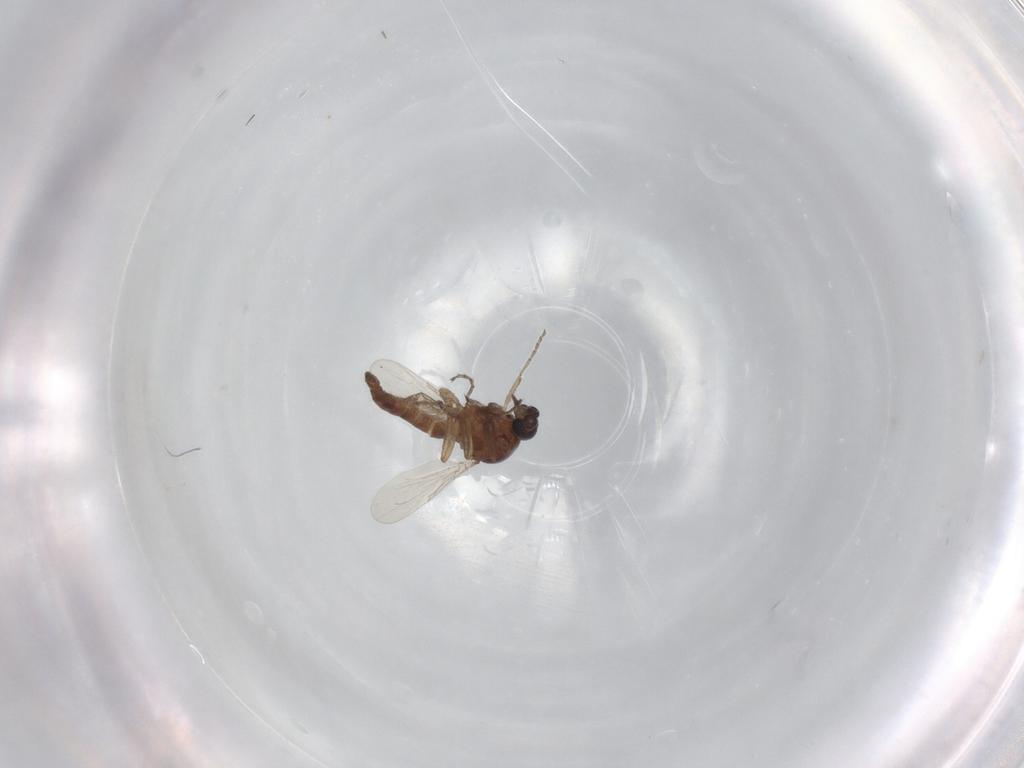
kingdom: Animalia
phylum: Arthropoda
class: Insecta
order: Diptera
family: Ceratopogonidae
